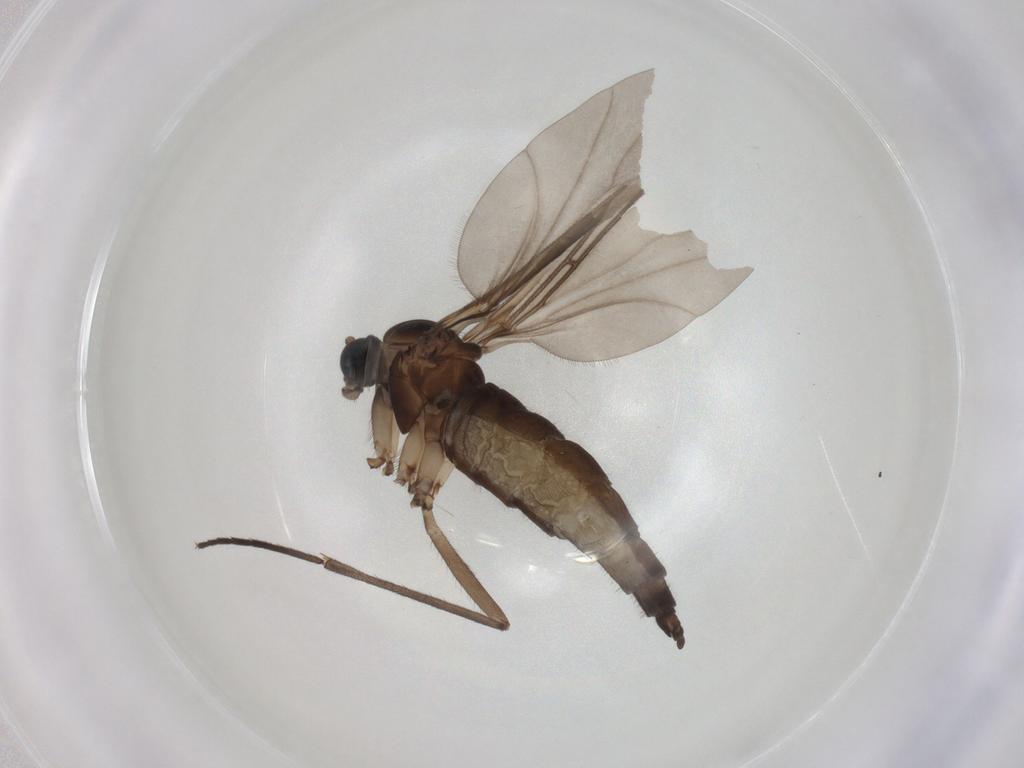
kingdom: Animalia
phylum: Arthropoda
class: Insecta
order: Diptera
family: Sciaridae
